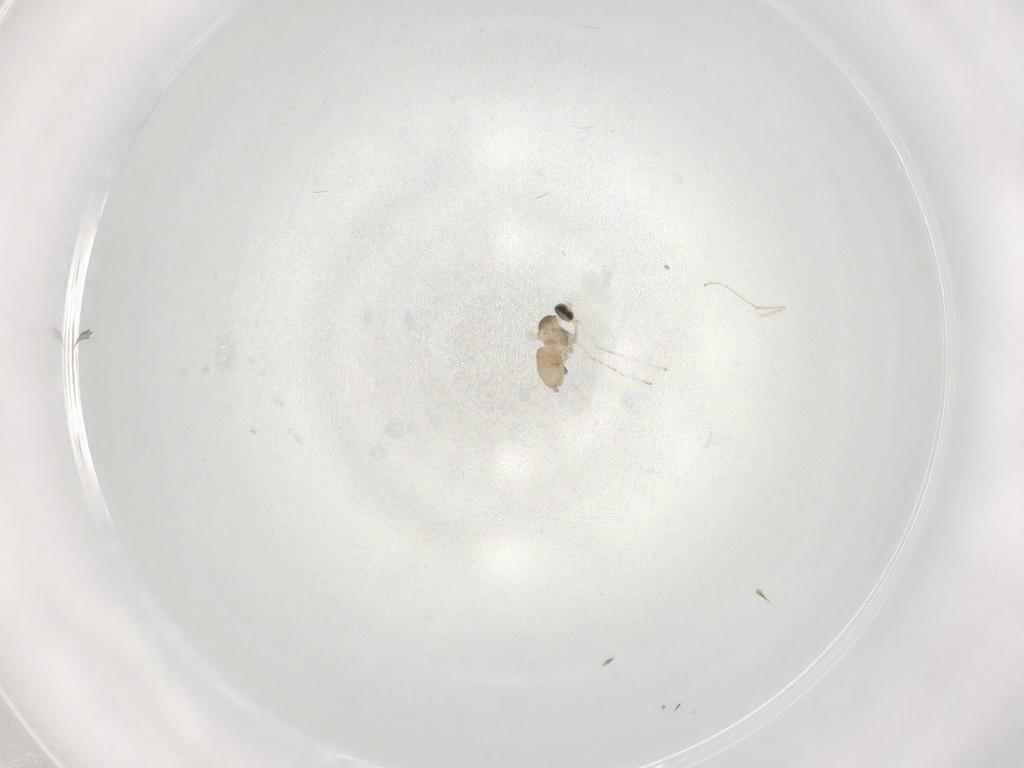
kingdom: Animalia
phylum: Arthropoda
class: Insecta
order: Diptera
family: Cecidomyiidae
